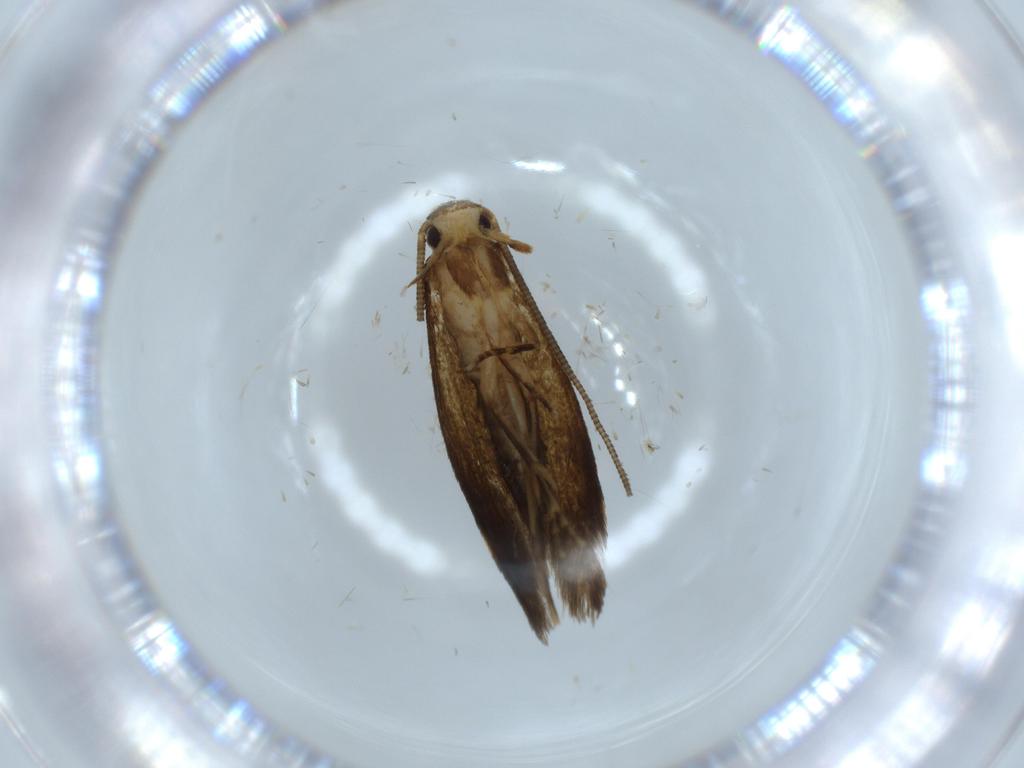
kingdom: Animalia
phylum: Arthropoda
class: Insecta
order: Lepidoptera
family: Tineidae
